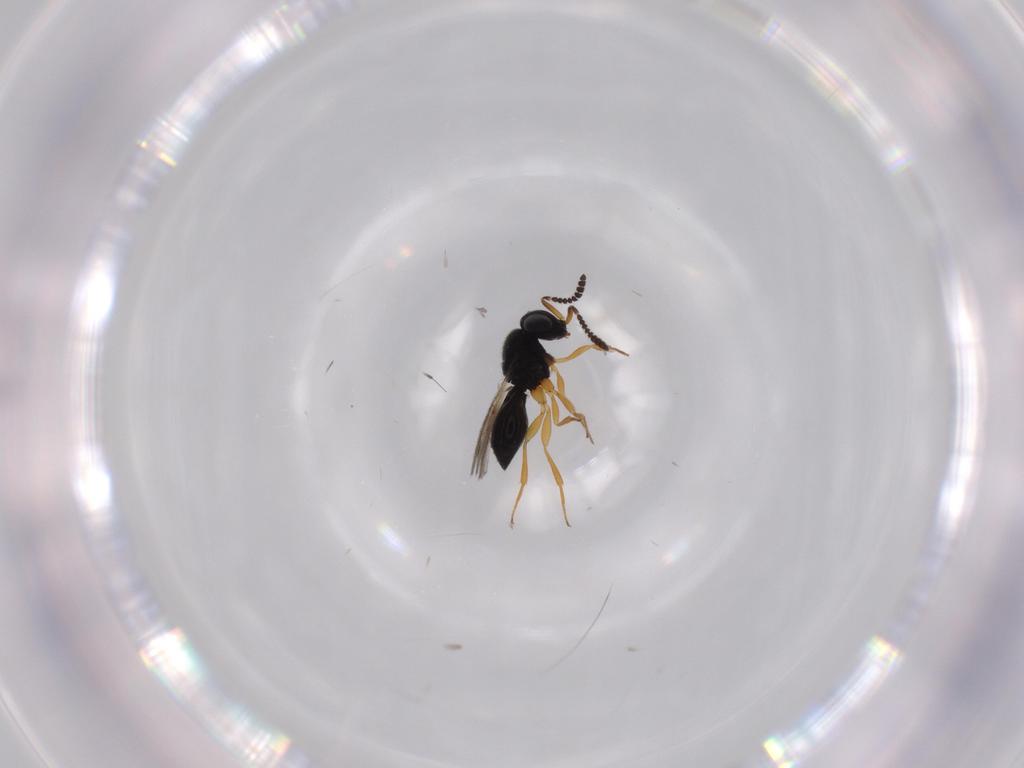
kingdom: Animalia
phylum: Arthropoda
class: Insecta
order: Hymenoptera
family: Scelionidae
